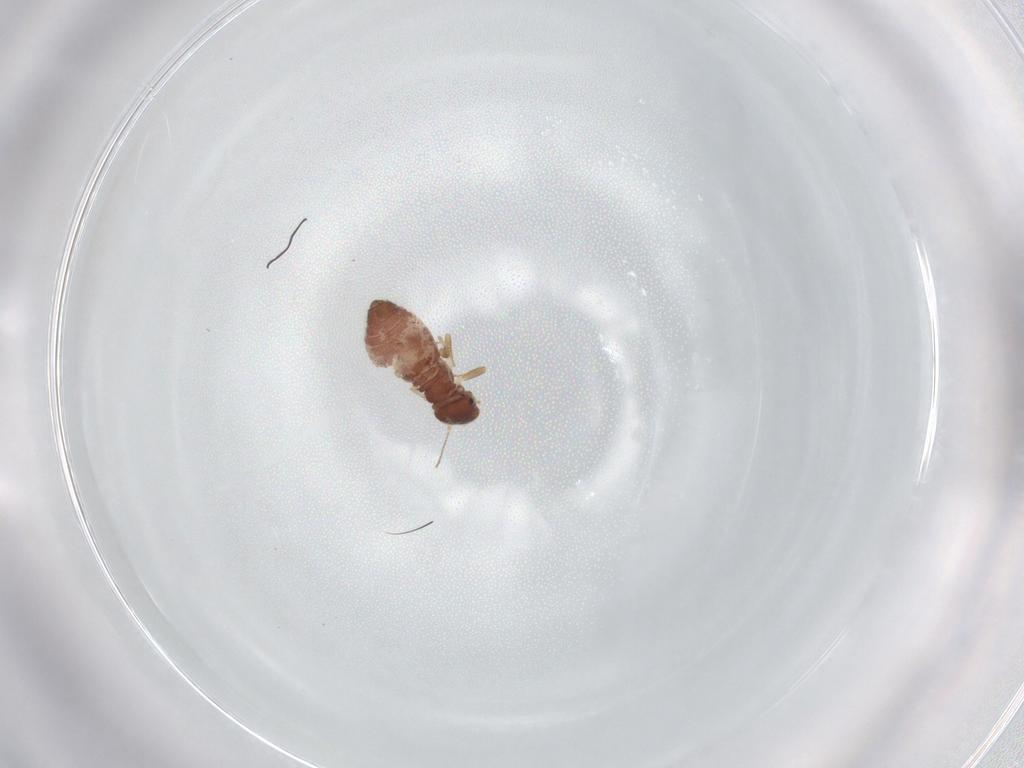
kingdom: Animalia
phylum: Arthropoda
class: Insecta
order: Psocodea
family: Archipsocidae
